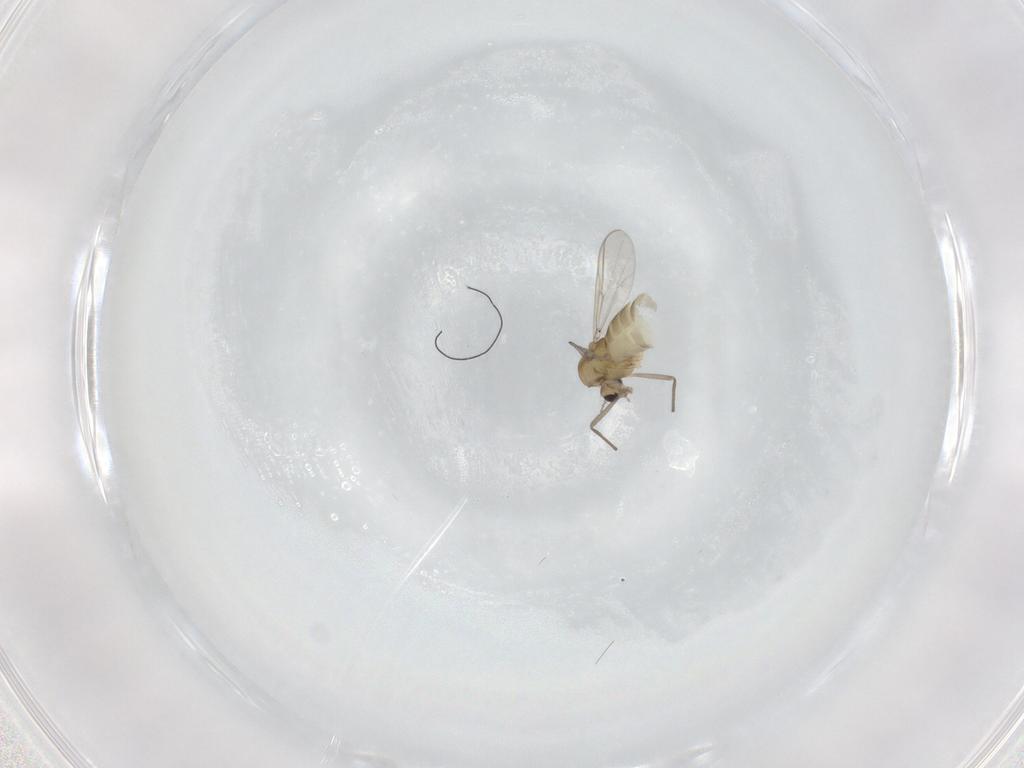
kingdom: Animalia
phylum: Arthropoda
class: Insecta
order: Diptera
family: Chironomidae
